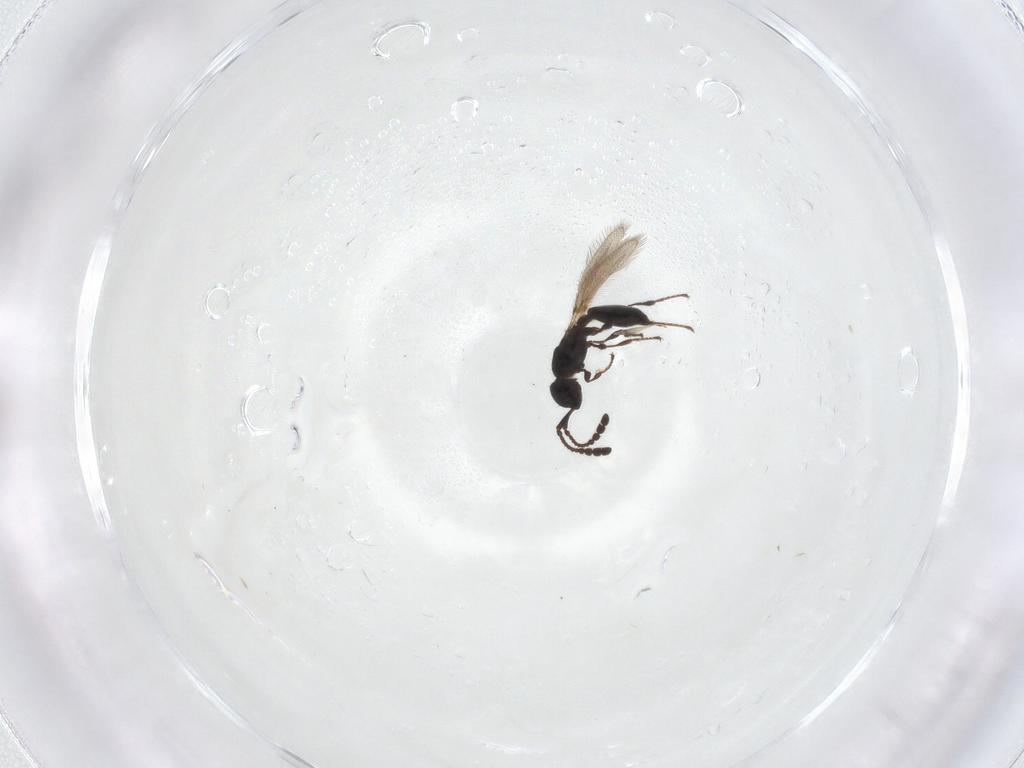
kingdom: Animalia
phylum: Arthropoda
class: Insecta
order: Hymenoptera
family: Diapriidae
